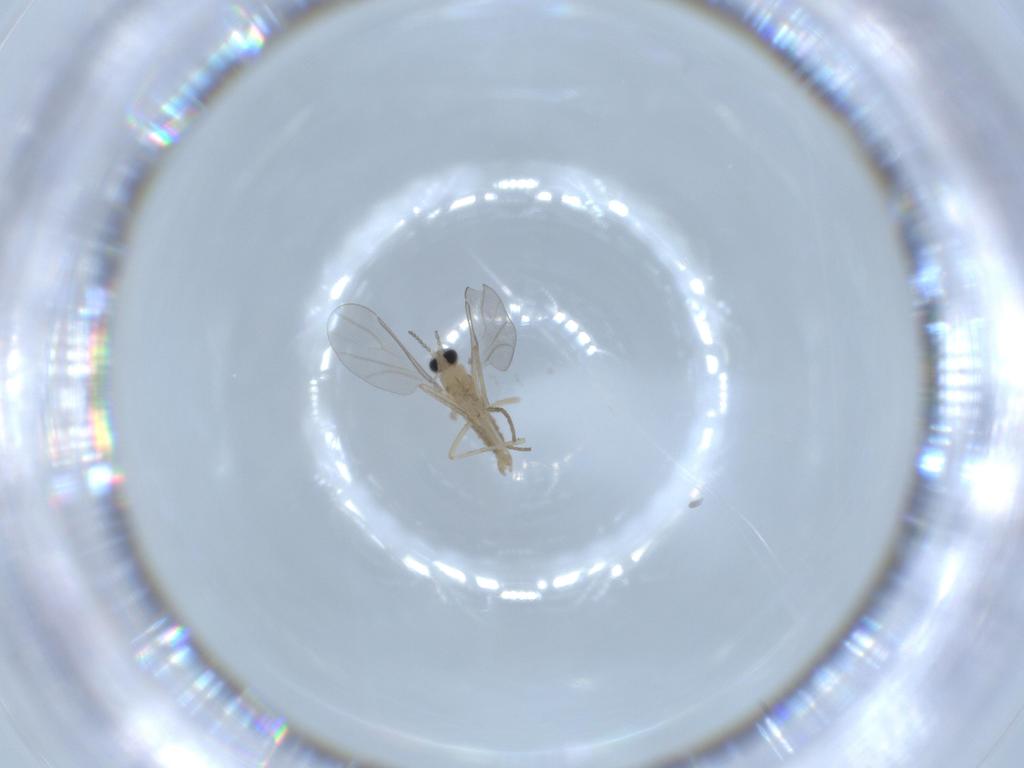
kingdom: Animalia
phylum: Arthropoda
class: Insecta
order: Diptera
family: Cecidomyiidae
